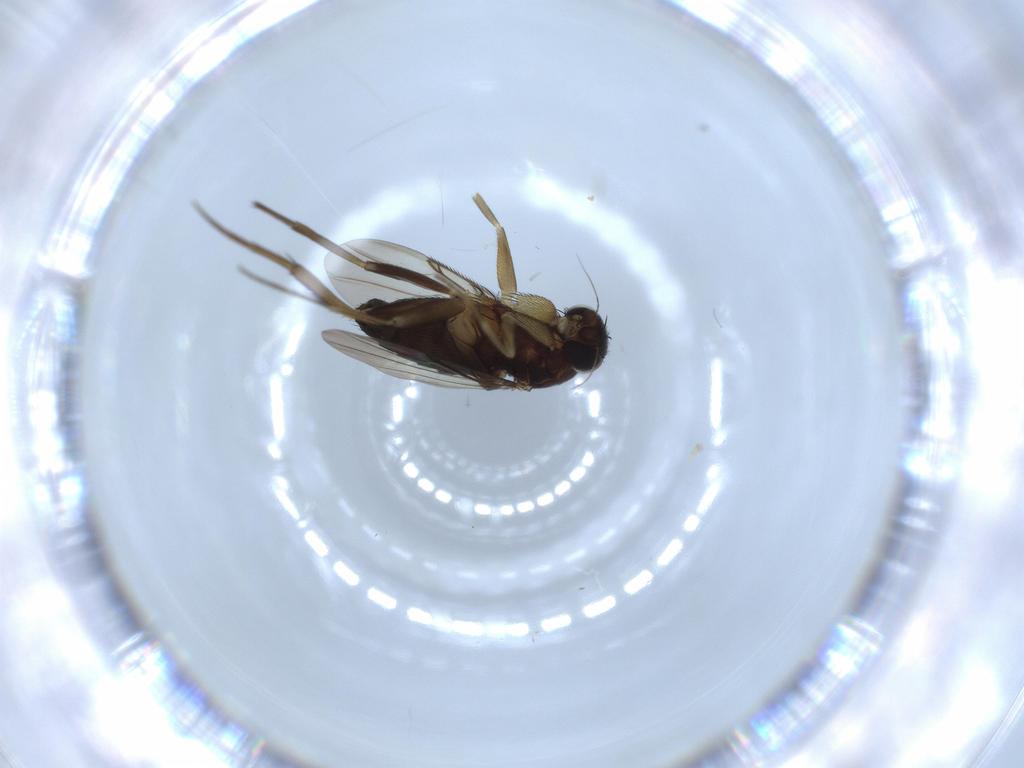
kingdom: Animalia
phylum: Arthropoda
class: Insecta
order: Diptera
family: Phoridae
